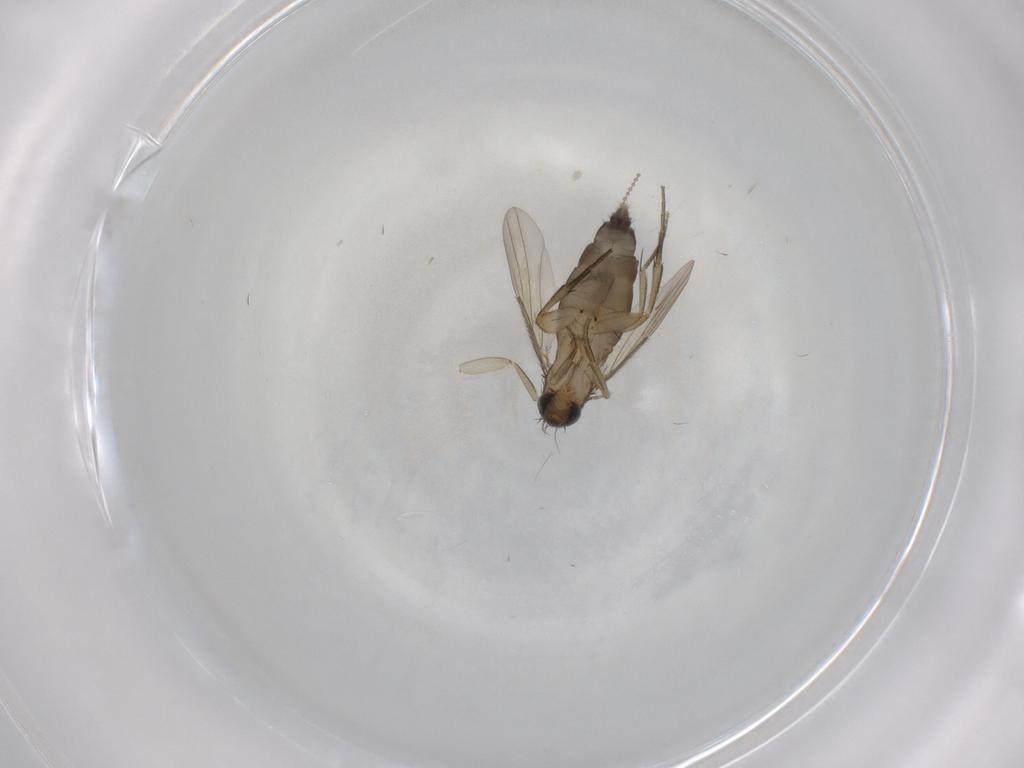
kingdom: Animalia
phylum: Arthropoda
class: Insecta
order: Diptera
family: Phoridae
